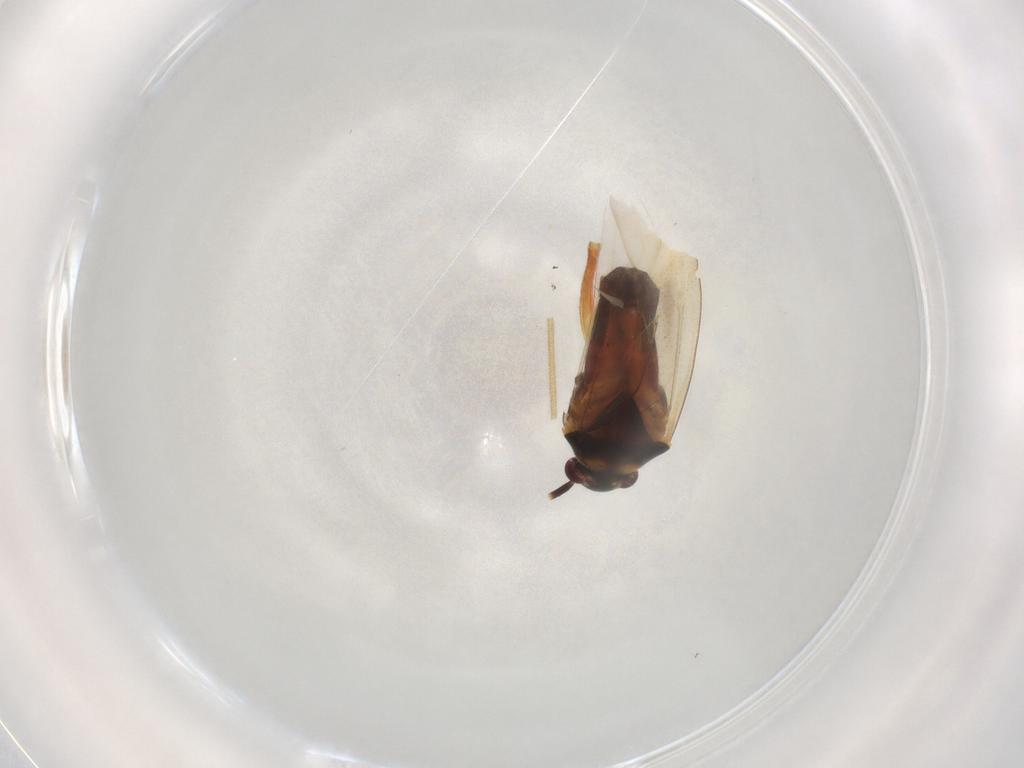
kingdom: Animalia
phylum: Arthropoda
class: Insecta
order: Hemiptera
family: Miridae
